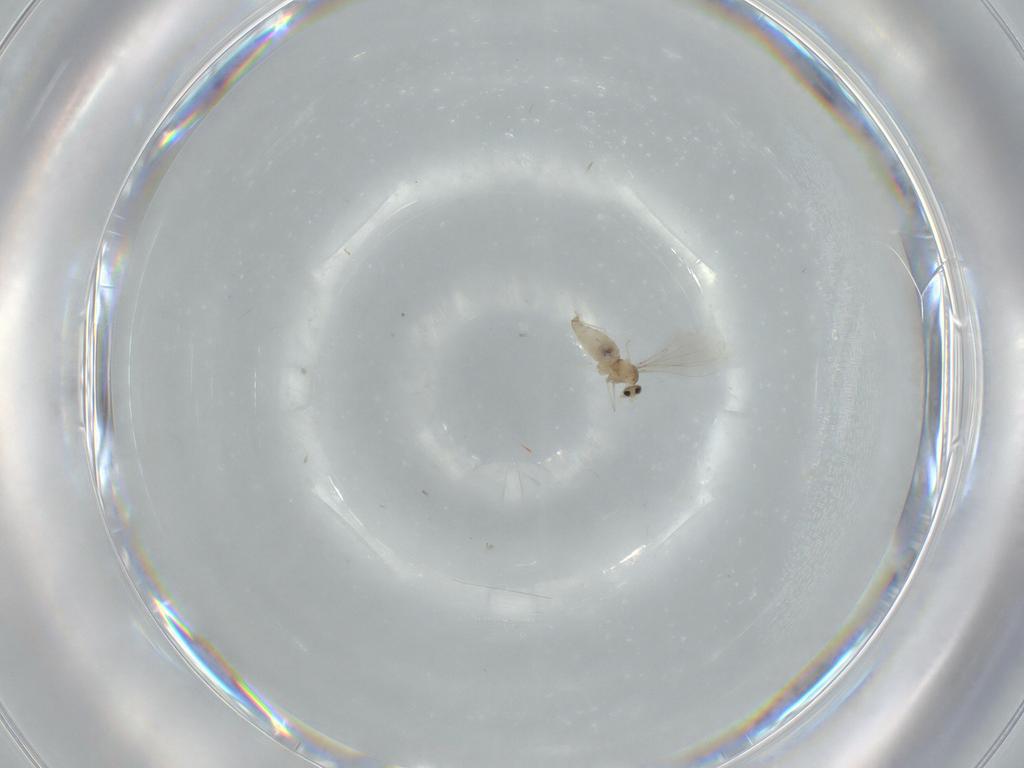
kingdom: Animalia
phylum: Arthropoda
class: Insecta
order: Diptera
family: Cecidomyiidae
